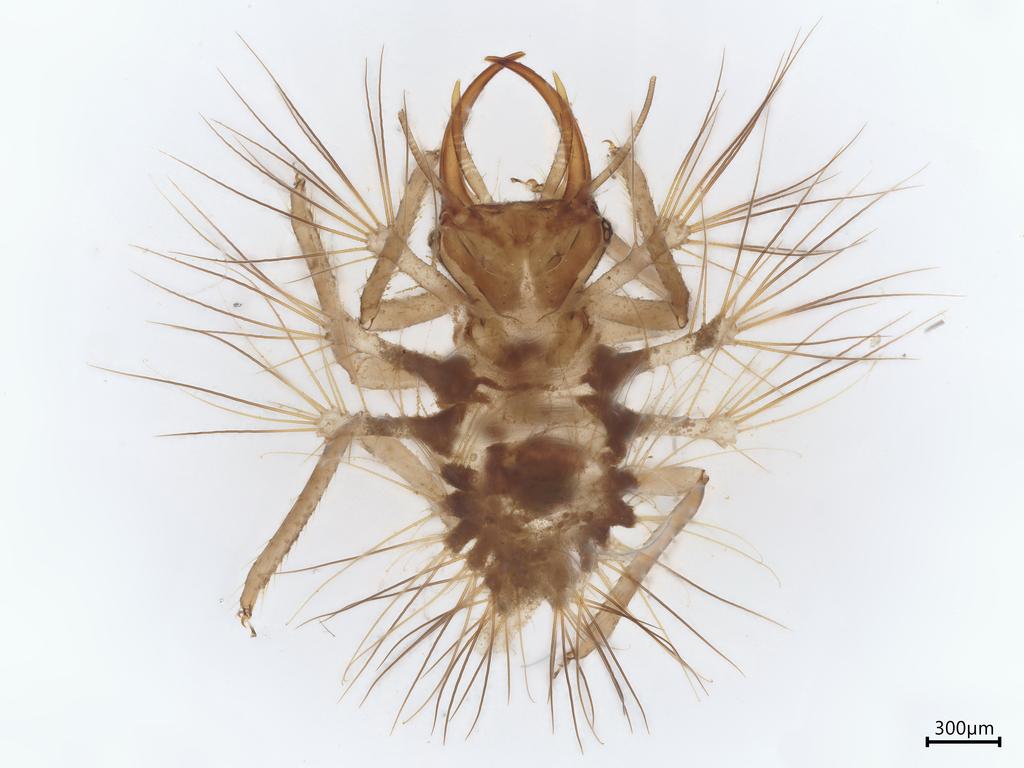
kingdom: Animalia
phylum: Arthropoda
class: Insecta
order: Neuroptera
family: Chrysopidae
